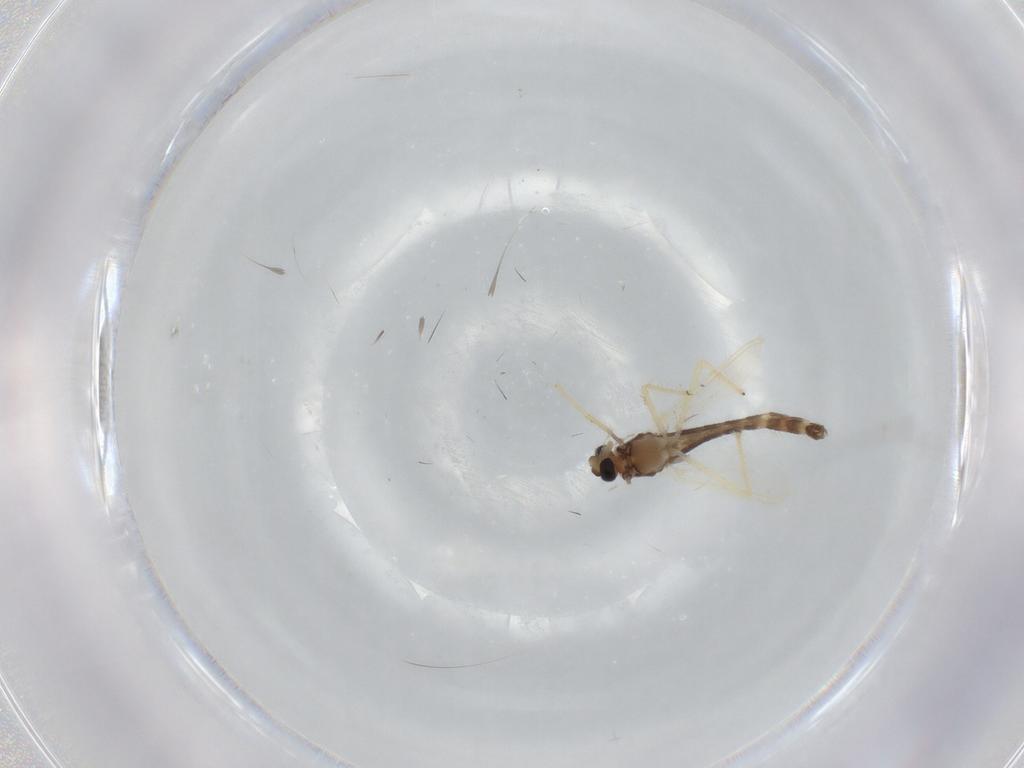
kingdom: Animalia
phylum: Arthropoda
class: Insecta
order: Diptera
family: Chironomidae
